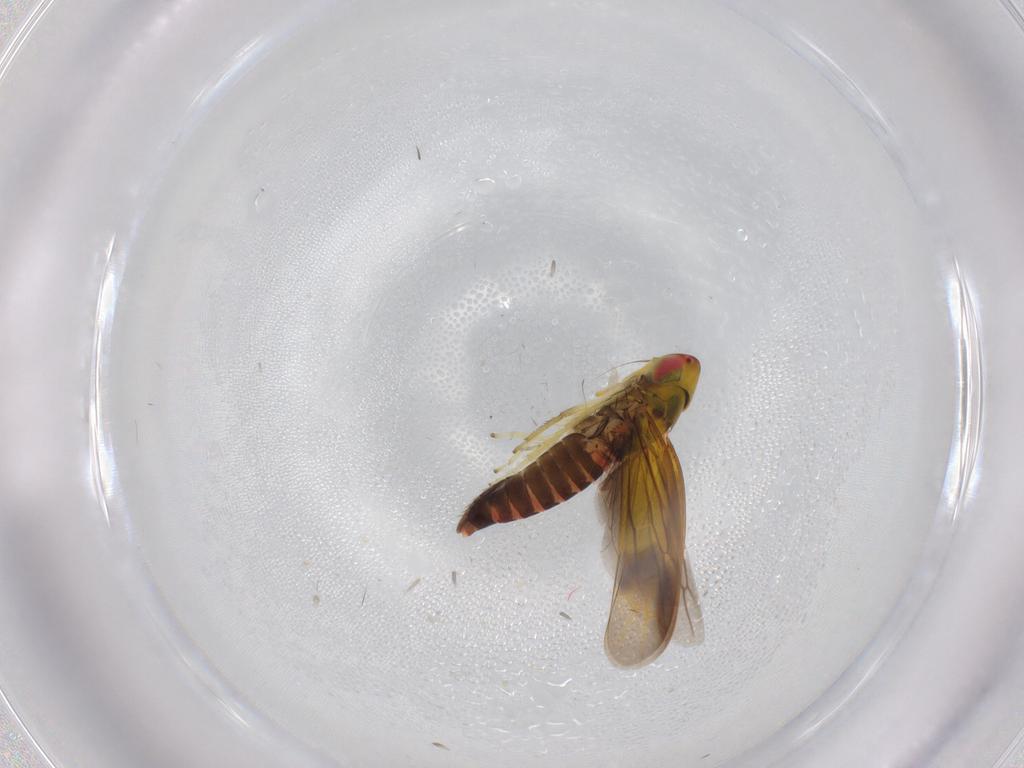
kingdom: Animalia
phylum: Arthropoda
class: Insecta
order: Hemiptera
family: Cicadellidae
